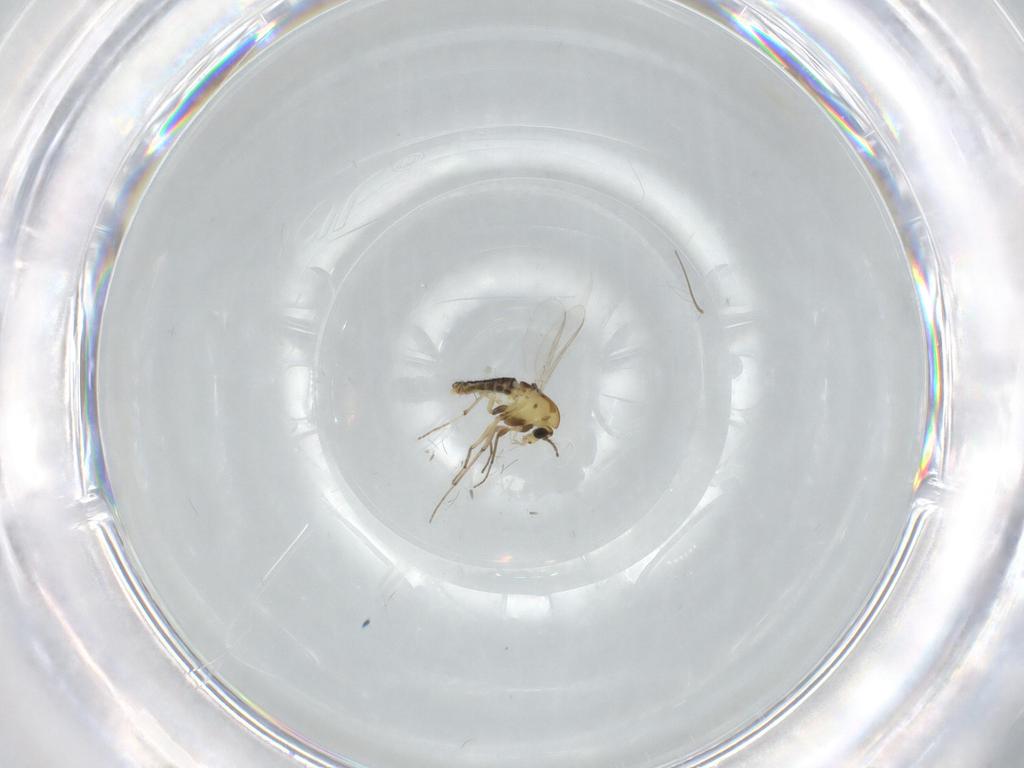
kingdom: Animalia
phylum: Arthropoda
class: Insecta
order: Diptera
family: Chironomidae
